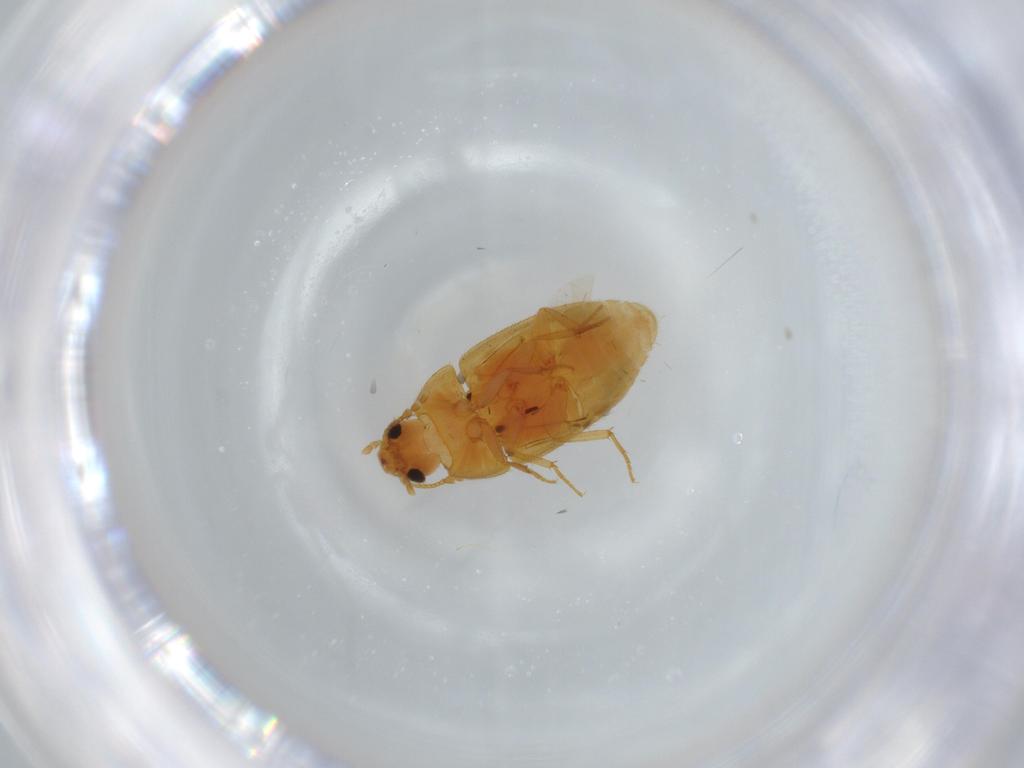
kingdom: Animalia
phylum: Arthropoda
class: Insecta
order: Coleoptera
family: Mycetophagidae
